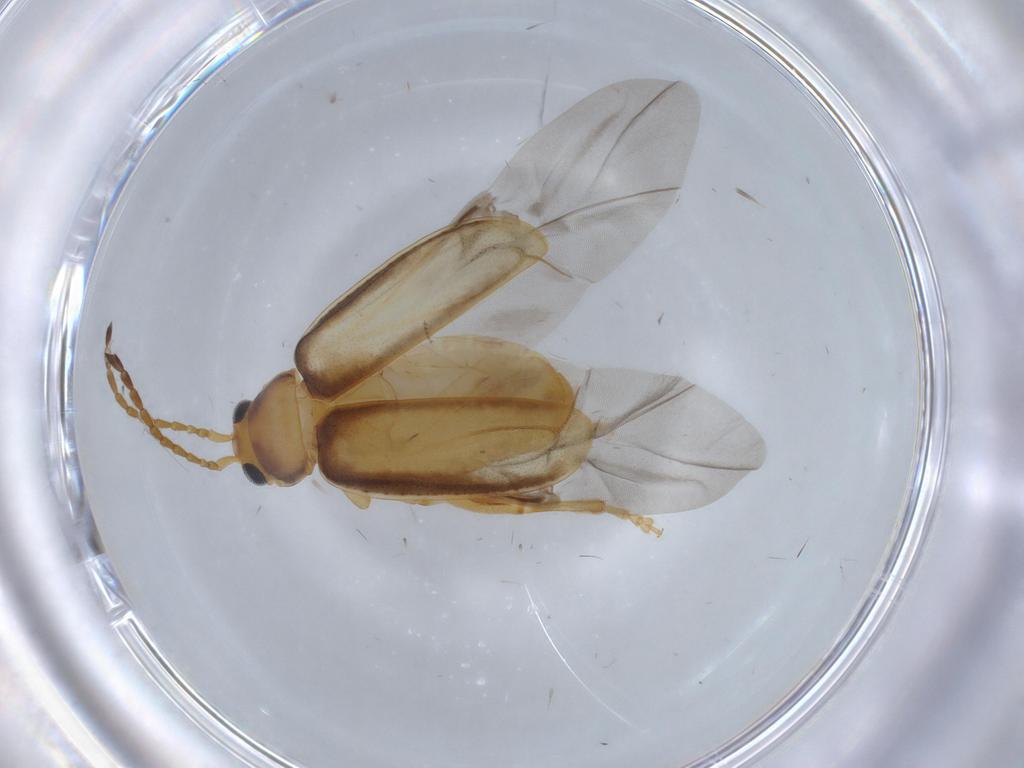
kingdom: Animalia
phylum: Arthropoda
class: Insecta
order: Coleoptera
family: Chrysomelidae
